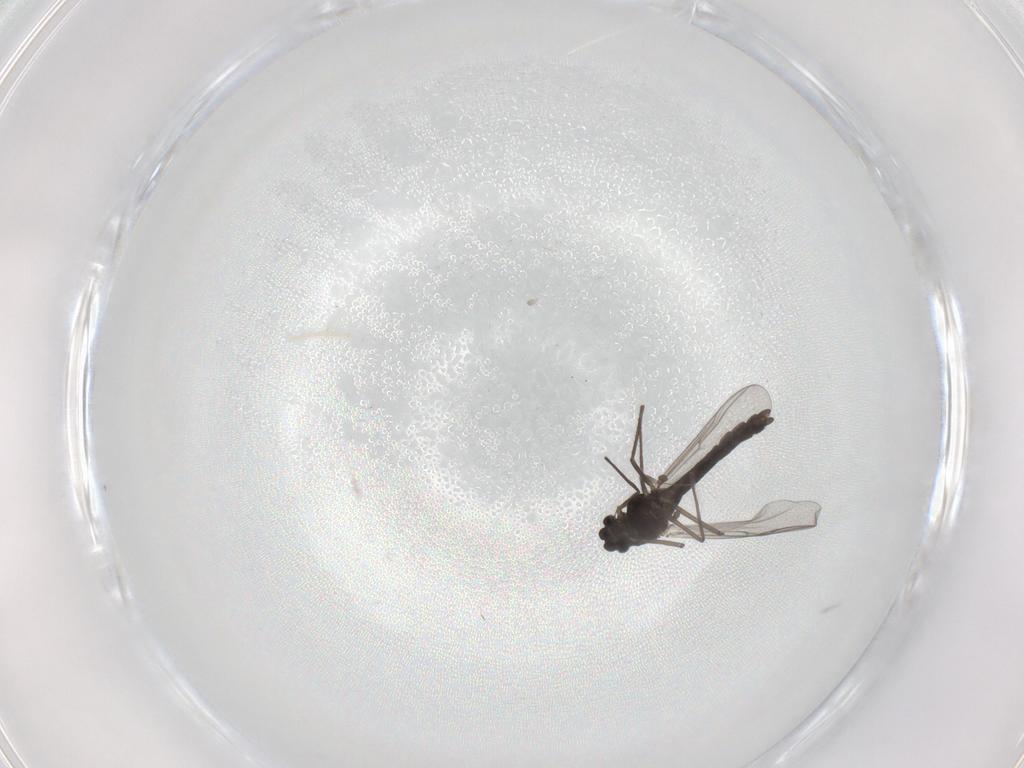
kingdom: Animalia
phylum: Arthropoda
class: Insecta
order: Diptera
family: Chironomidae
